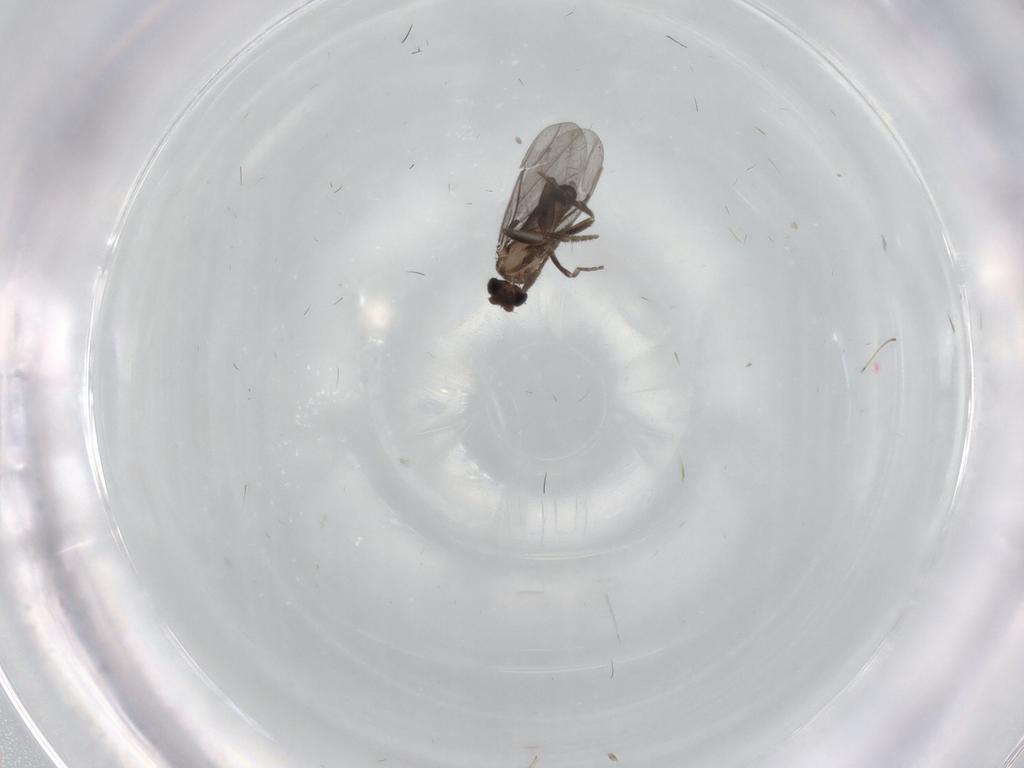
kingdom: Animalia
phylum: Arthropoda
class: Insecta
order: Diptera
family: Phoridae
